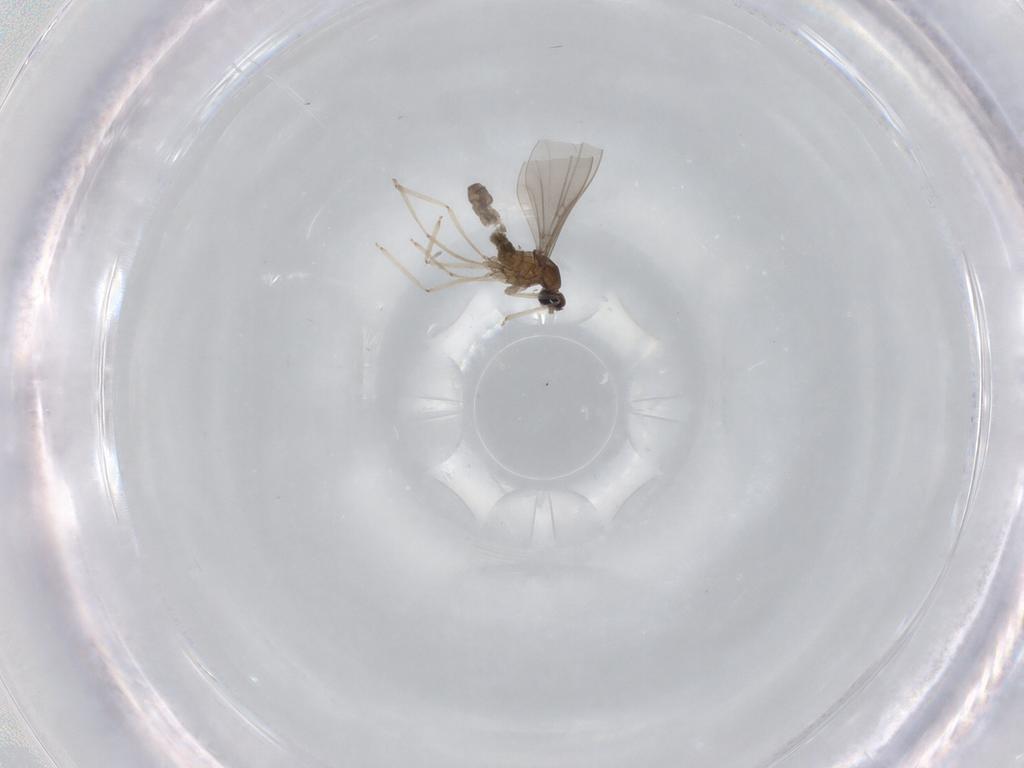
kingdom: Animalia
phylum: Arthropoda
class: Insecta
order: Diptera
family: Cecidomyiidae
